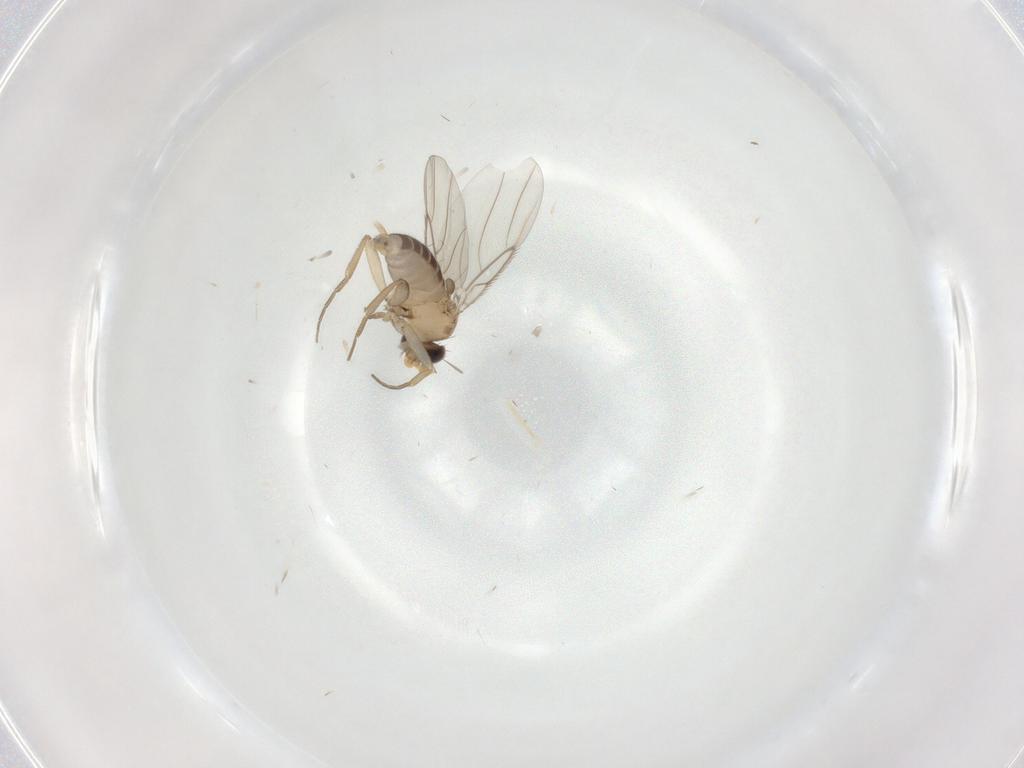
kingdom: Animalia
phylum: Arthropoda
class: Insecta
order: Diptera
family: Phoridae
